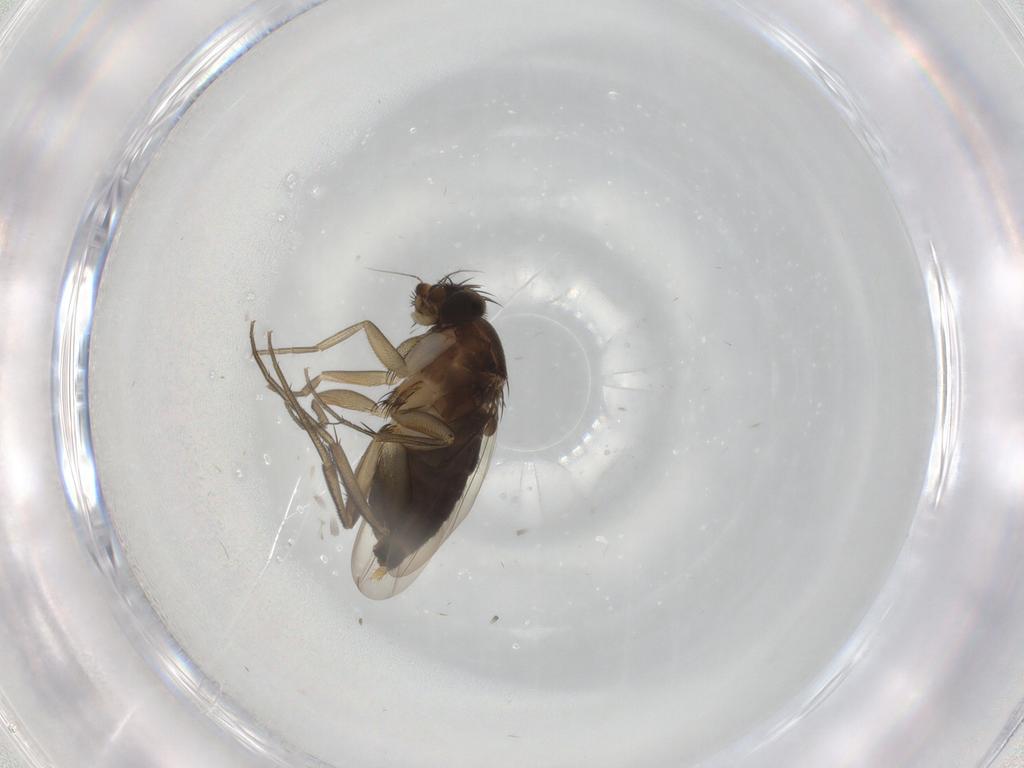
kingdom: Animalia
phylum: Arthropoda
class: Insecta
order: Diptera
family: Phoridae
